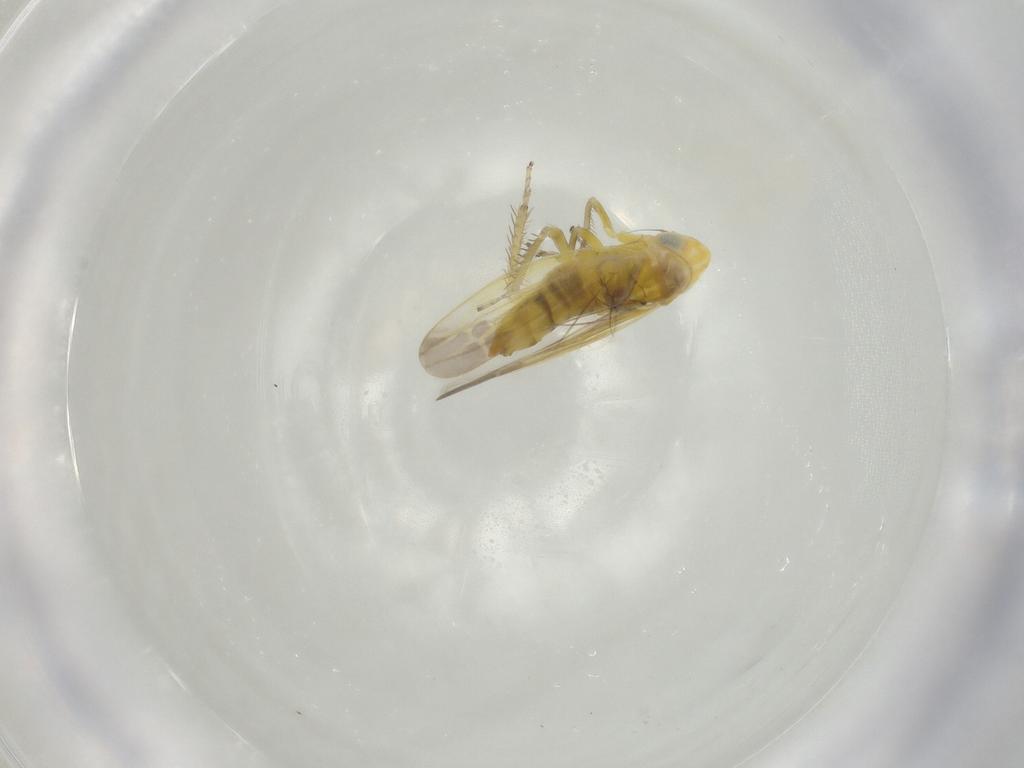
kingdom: Animalia
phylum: Arthropoda
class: Insecta
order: Hemiptera
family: Cicadellidae
